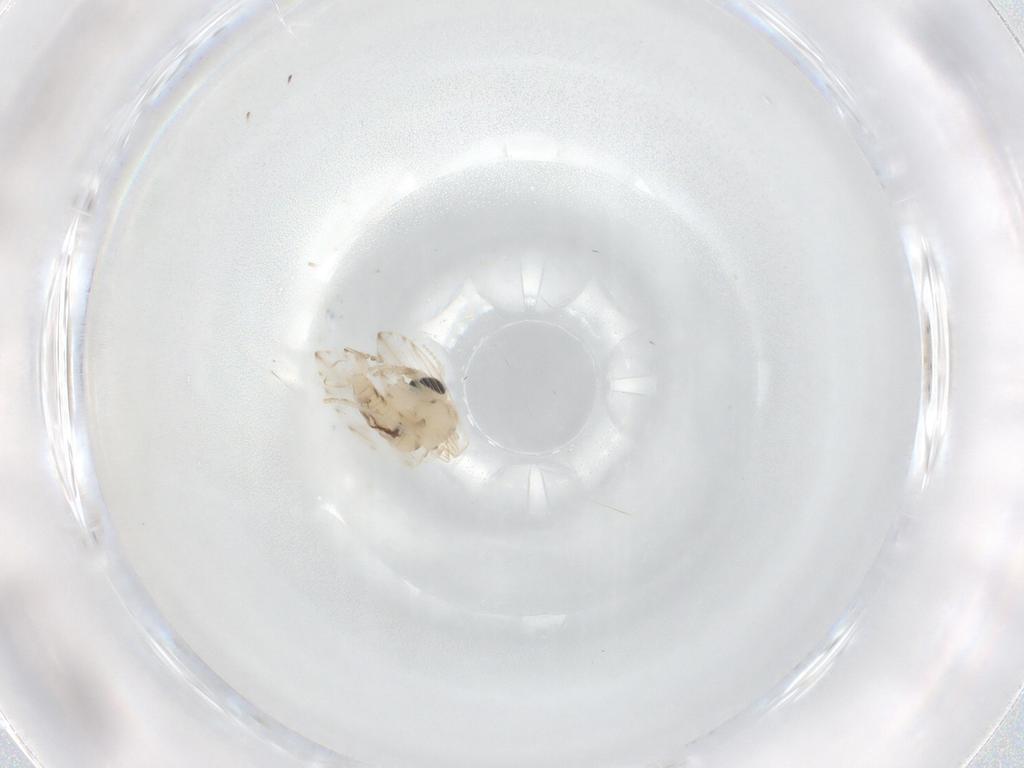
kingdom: Animalia
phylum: Arthropoda
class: Insecta
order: Diptera
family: Psychodidae
